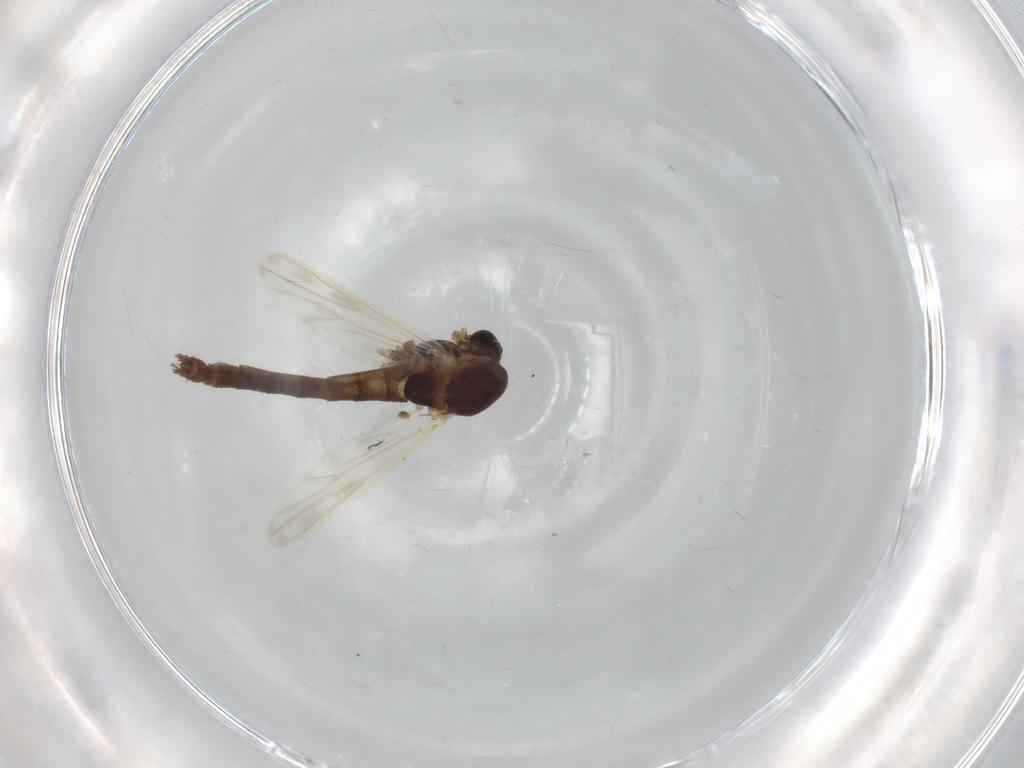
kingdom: Animalia
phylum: Arthropoda
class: Insecta
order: Diptera
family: Chironomidae
